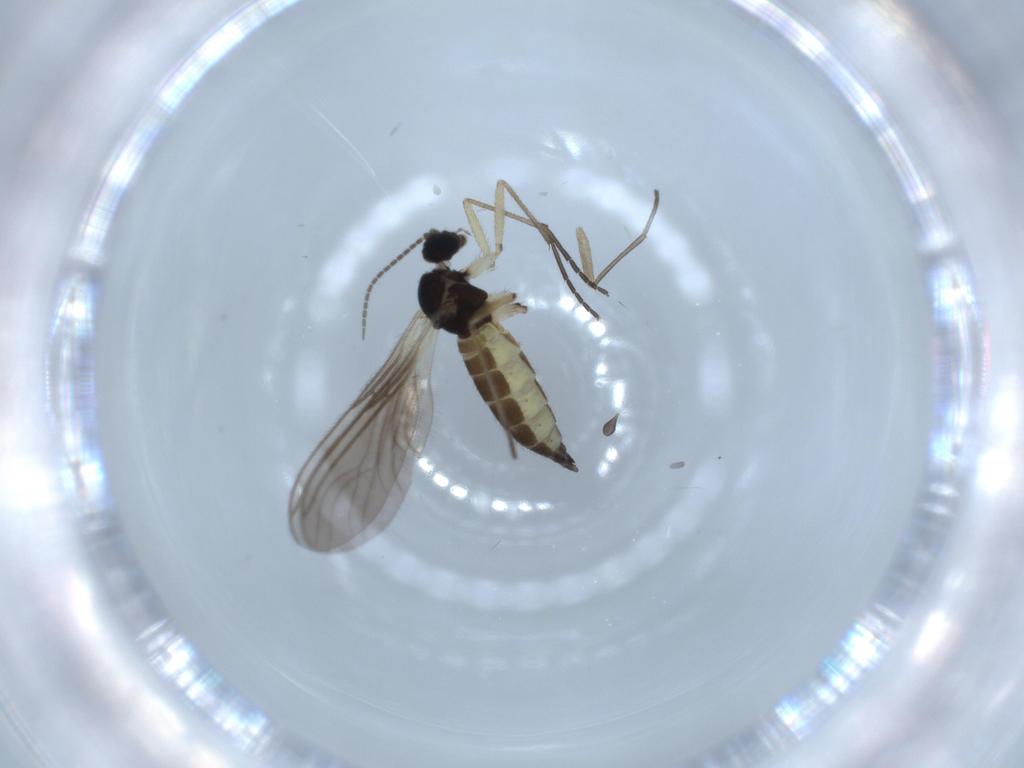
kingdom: Animalia
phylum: Arthropoda
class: Insecta
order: Diptera
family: Sciaridae
